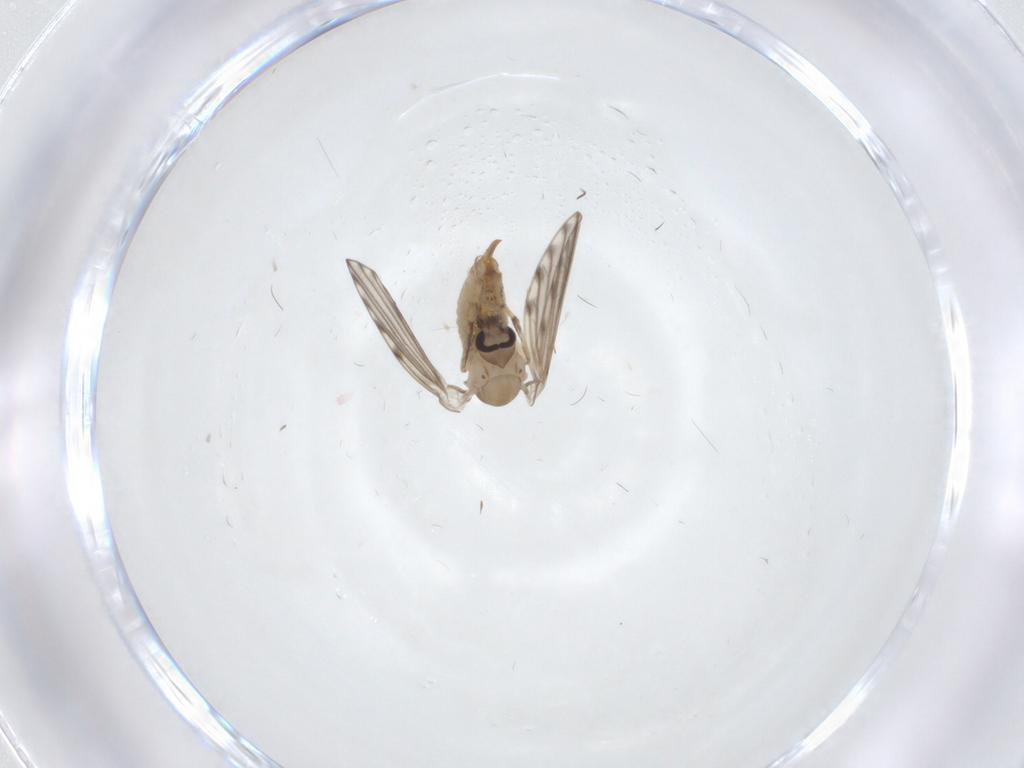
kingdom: Animalia
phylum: Arthropoda
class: Insecta
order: Diptera
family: Psychodidae
